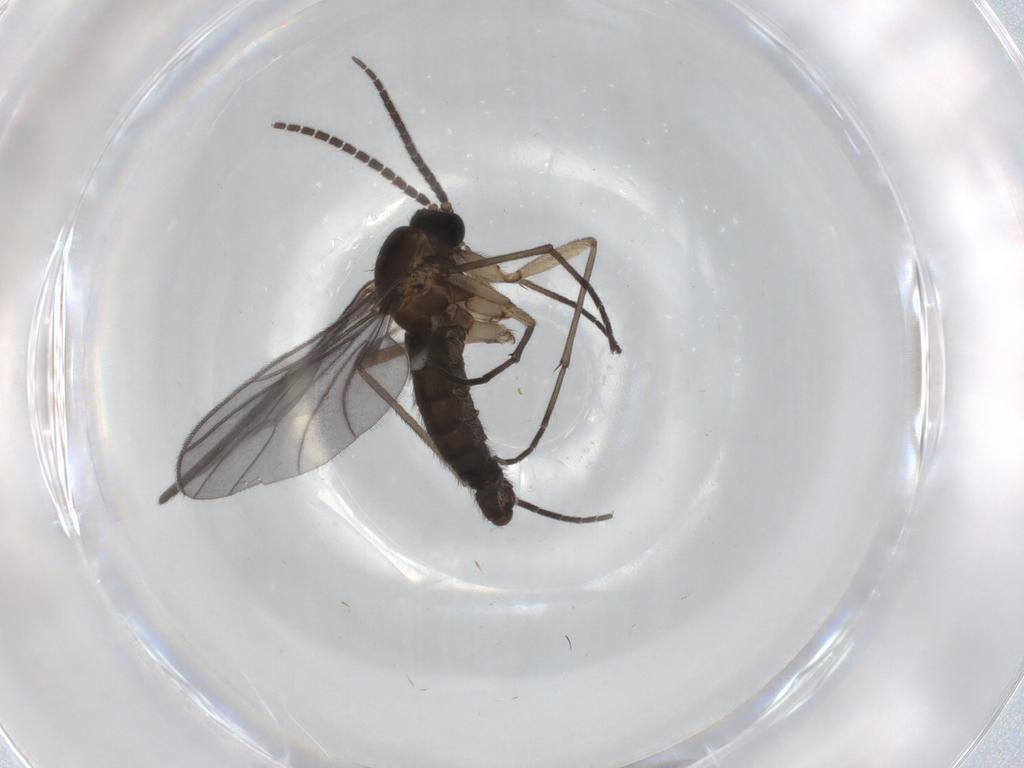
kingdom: Animalia
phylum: Arthropoda
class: Insecta
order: Diptera
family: Sciaridae
